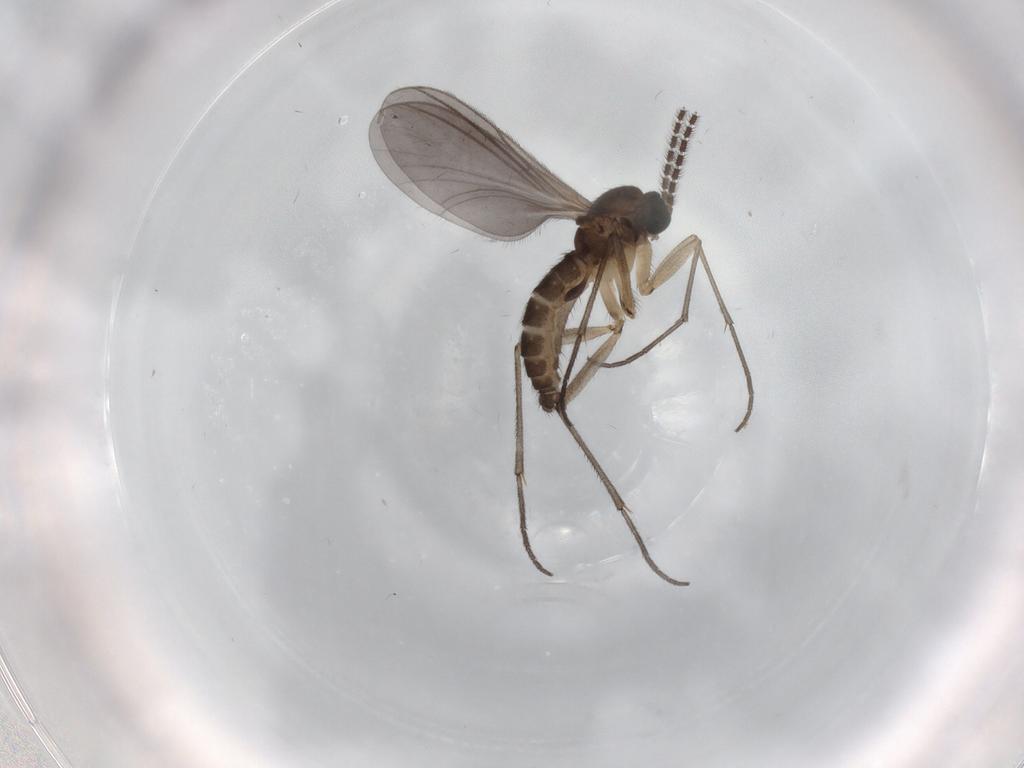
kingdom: Animalia
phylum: Arthropoda
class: Insecta
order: Diptera
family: Sciaridae
